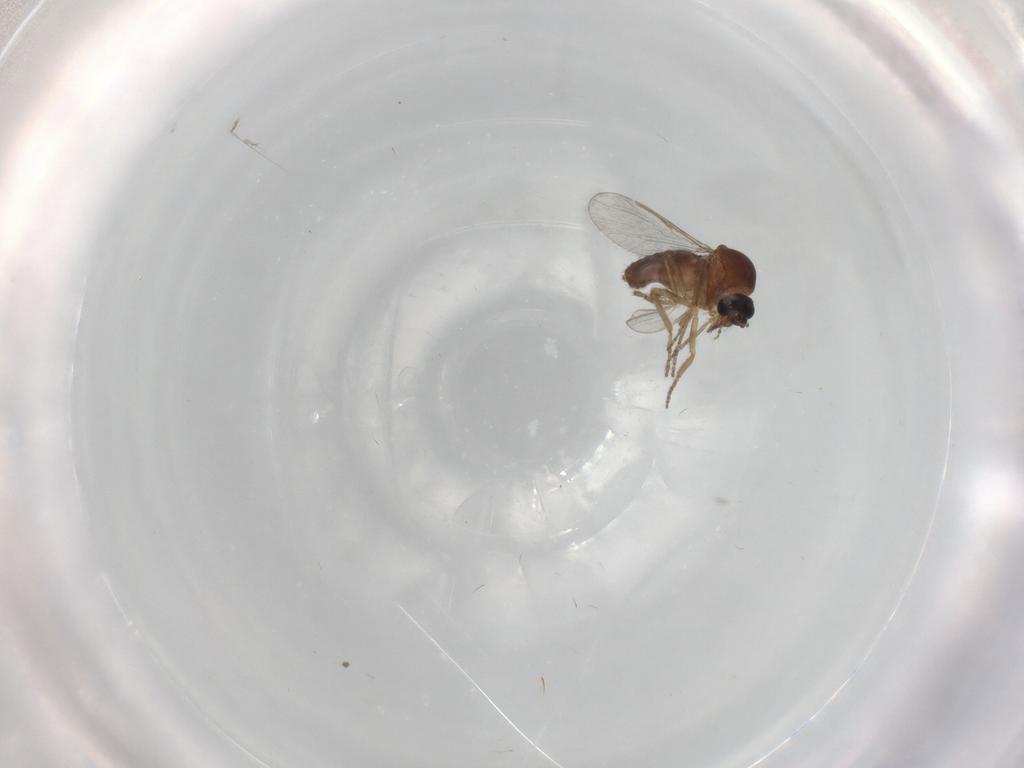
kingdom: Animalia
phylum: Arthropoda
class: Insecta
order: Diptera
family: Ceratopogonidae
